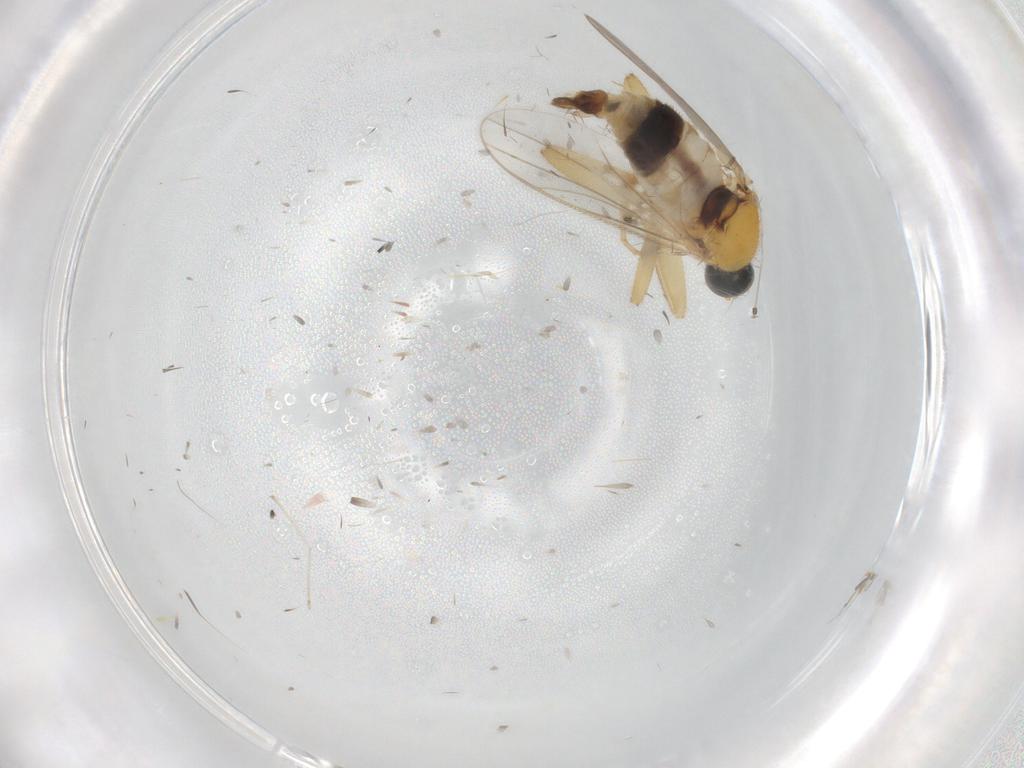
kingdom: Animalia
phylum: Arthropoda
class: Insecta
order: Diptera
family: Hybotidae
